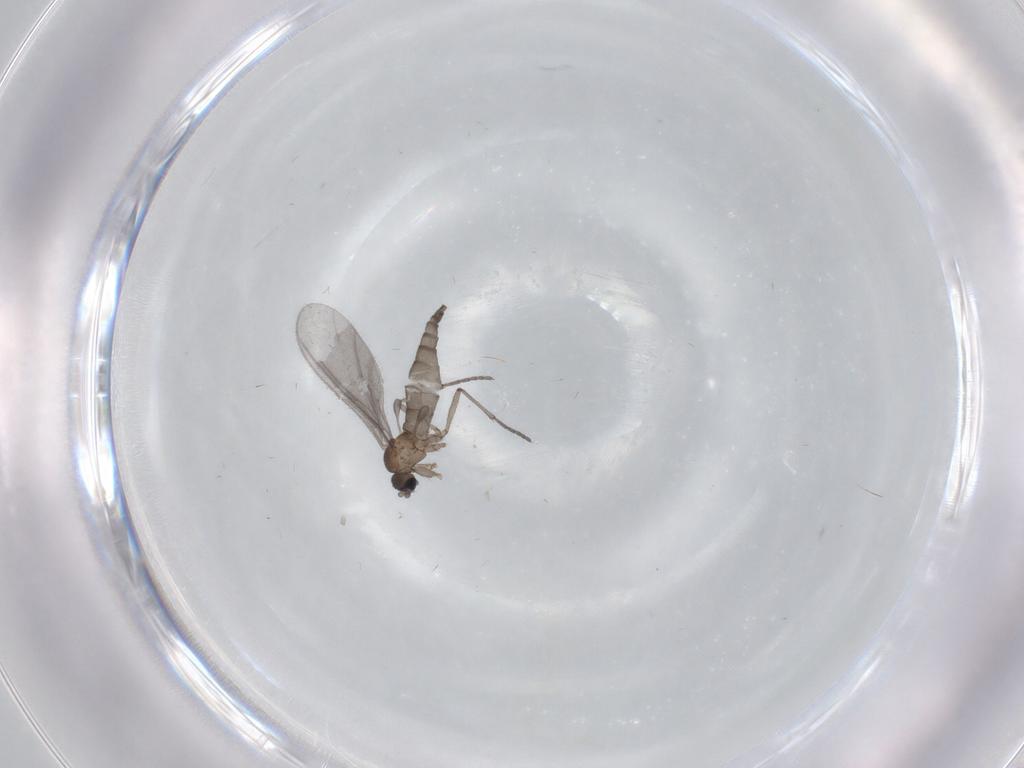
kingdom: Animalia
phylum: Arthropoda
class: Insecta
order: Diptera
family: Sciaridae
